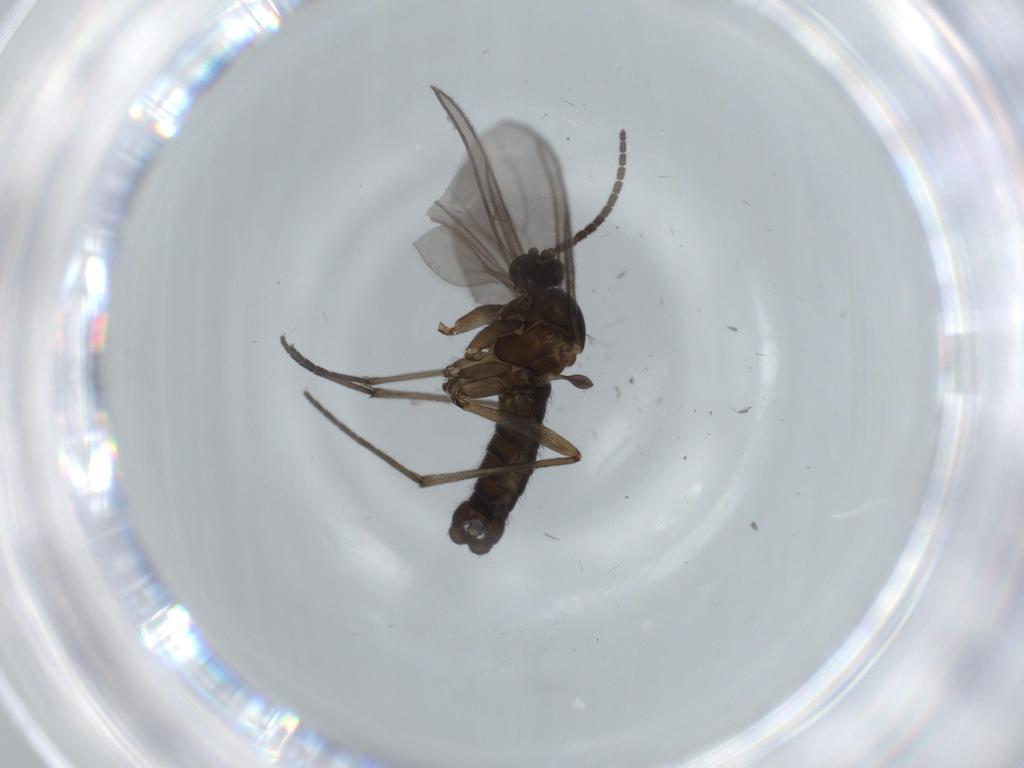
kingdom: Animalia
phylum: Arthropoda
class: Insecta
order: Diptera
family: Sciaridae
